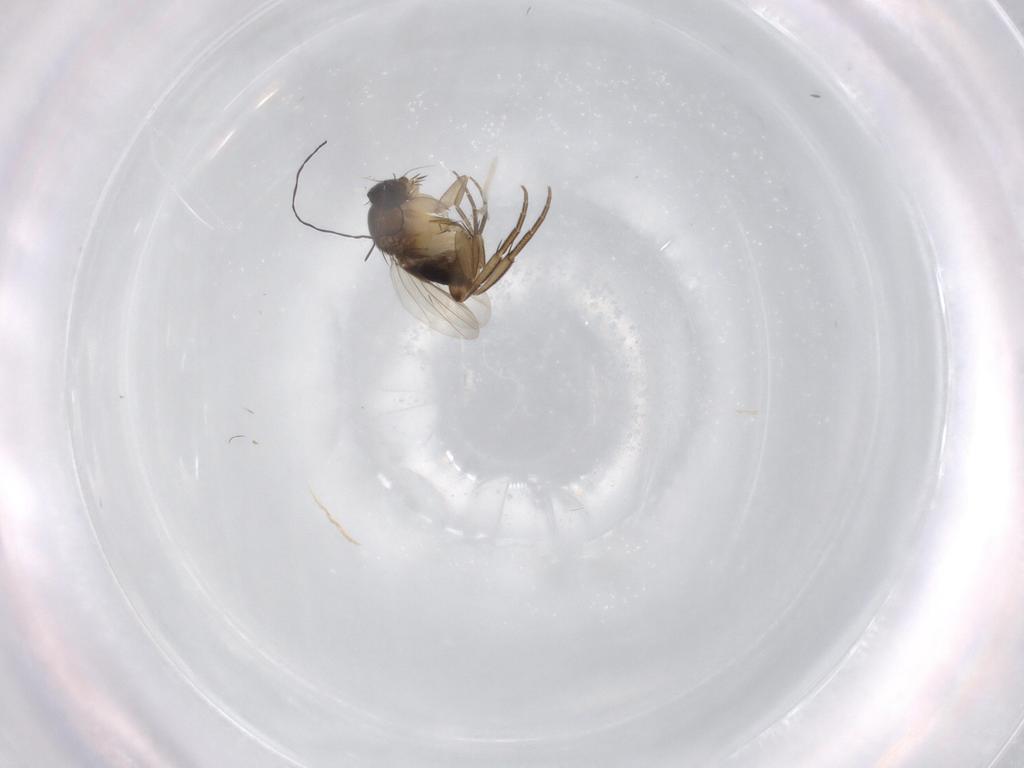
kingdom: Animalia
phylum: Arthropoda
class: Insecta
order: Diptera
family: Phoridae
